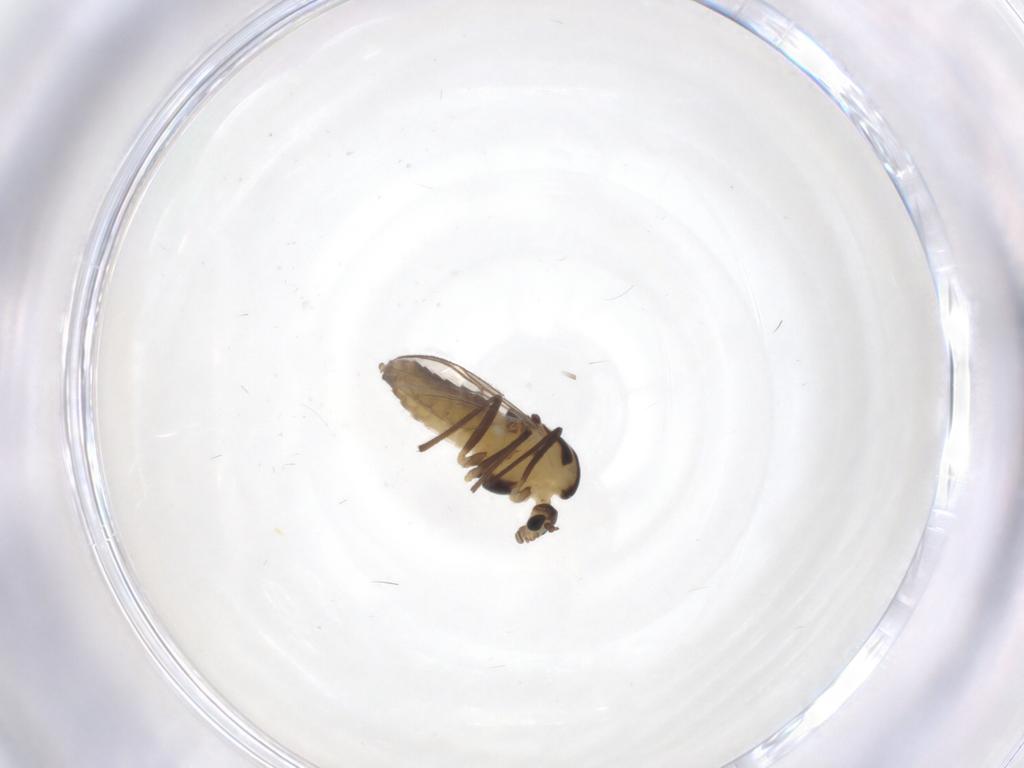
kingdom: Animalia
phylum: Arthropoda
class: Insecta
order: Diptera
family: Chironomidae
